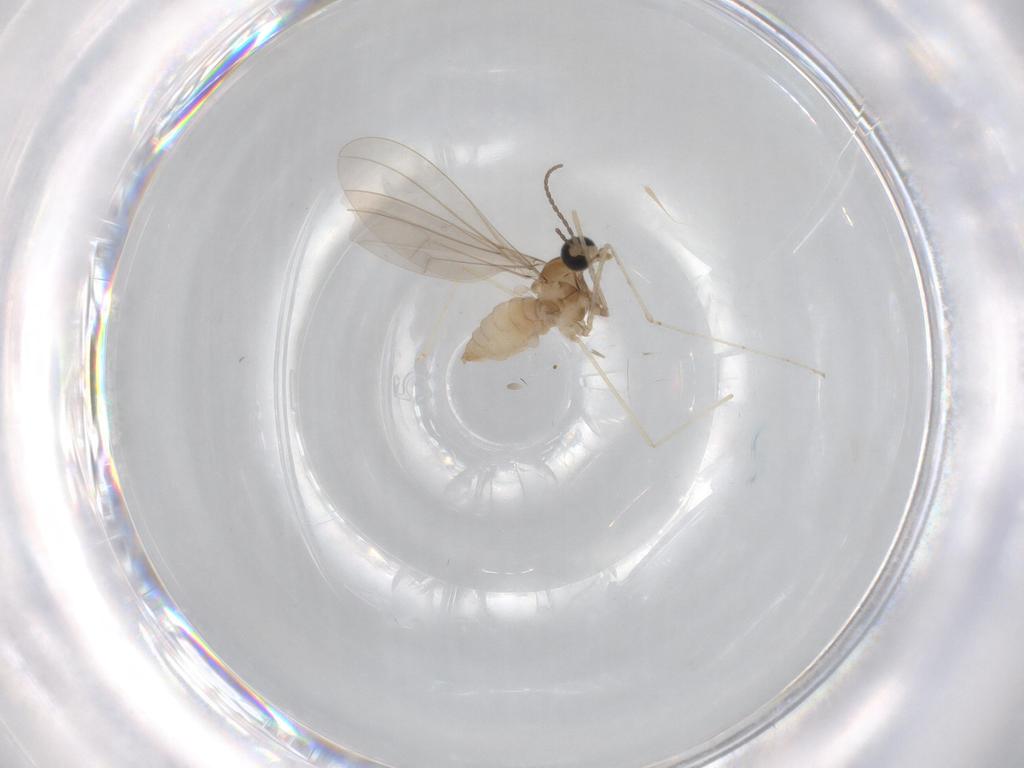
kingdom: Animalia
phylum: Arthropoda
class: Insecta
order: Diptera
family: Cecidomyiidae
